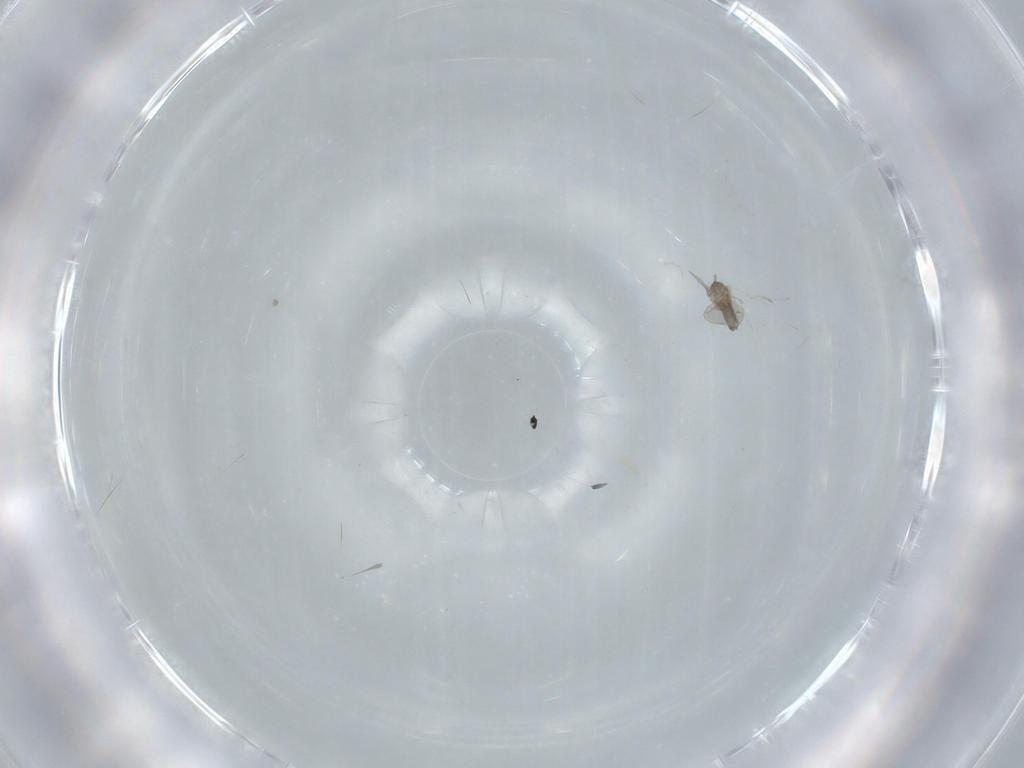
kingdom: Animalia
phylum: Arthropoda
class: Insecta
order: Diptera
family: Cecidomyiidae
